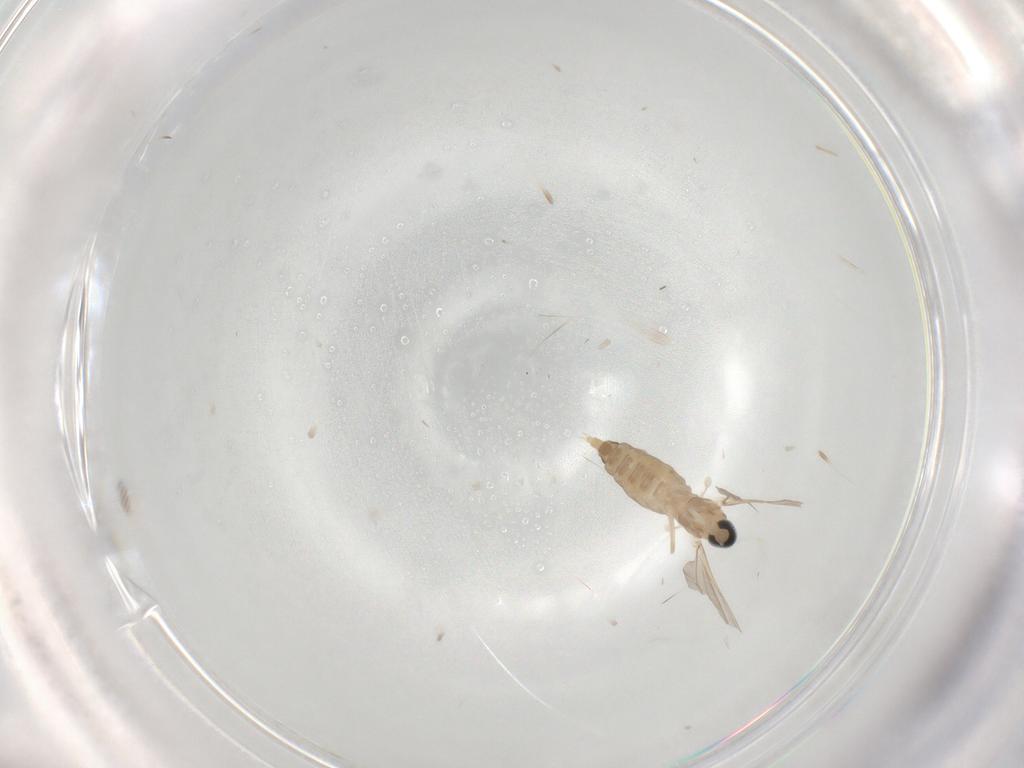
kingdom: Animalia
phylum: Arthropoda
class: Insecta
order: Diptera
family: Cecidomyiidae
